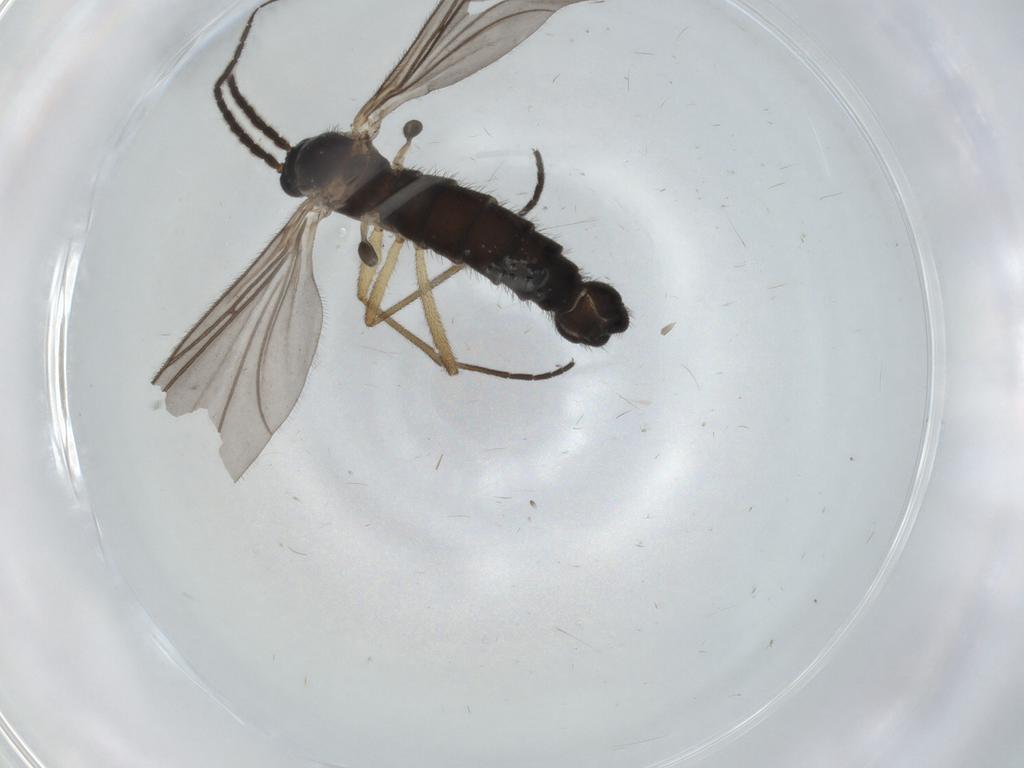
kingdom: Animalia
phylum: Arthropoda
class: Insecta
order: Diptera
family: Sciaridae
